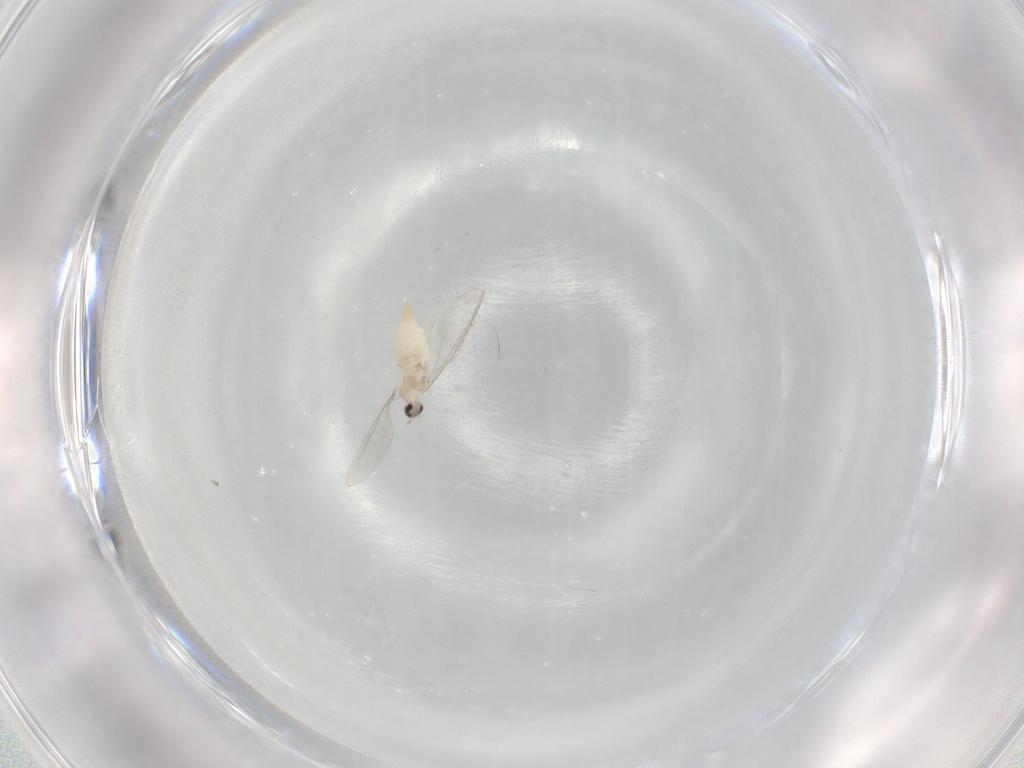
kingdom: Animalia
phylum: Arthropoda
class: Insecta
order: Diptera
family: Cecidomyiidae
